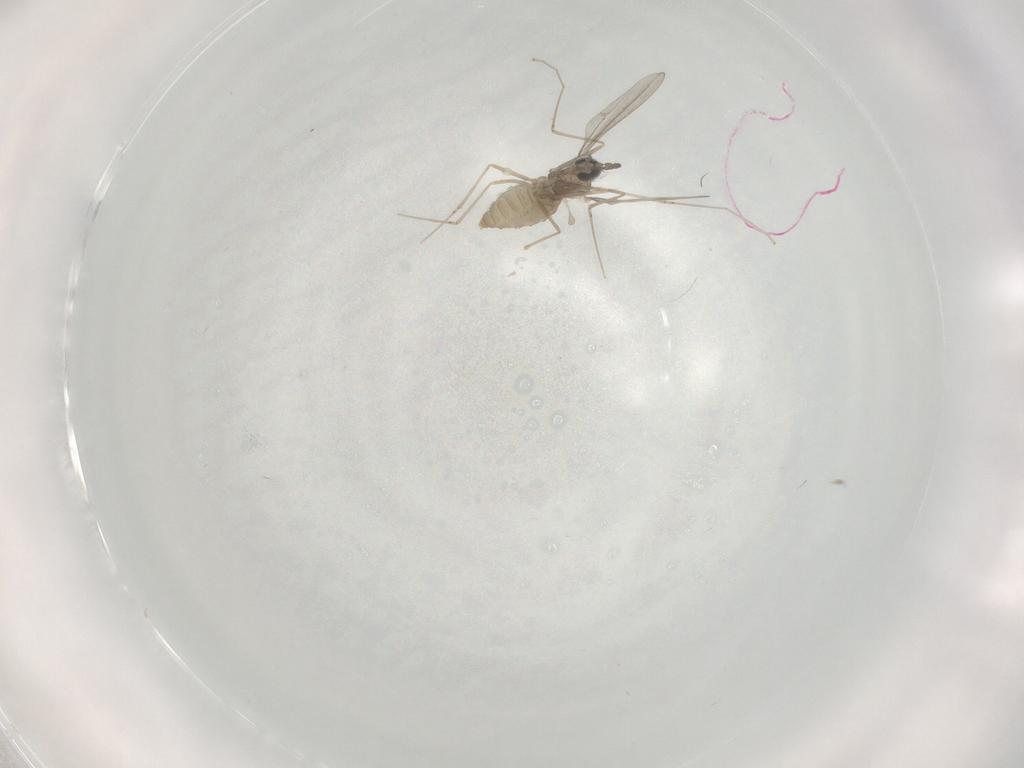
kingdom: Animalia
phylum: Arthropoda
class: Insecta
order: Diptera
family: Cecidomyiidae
